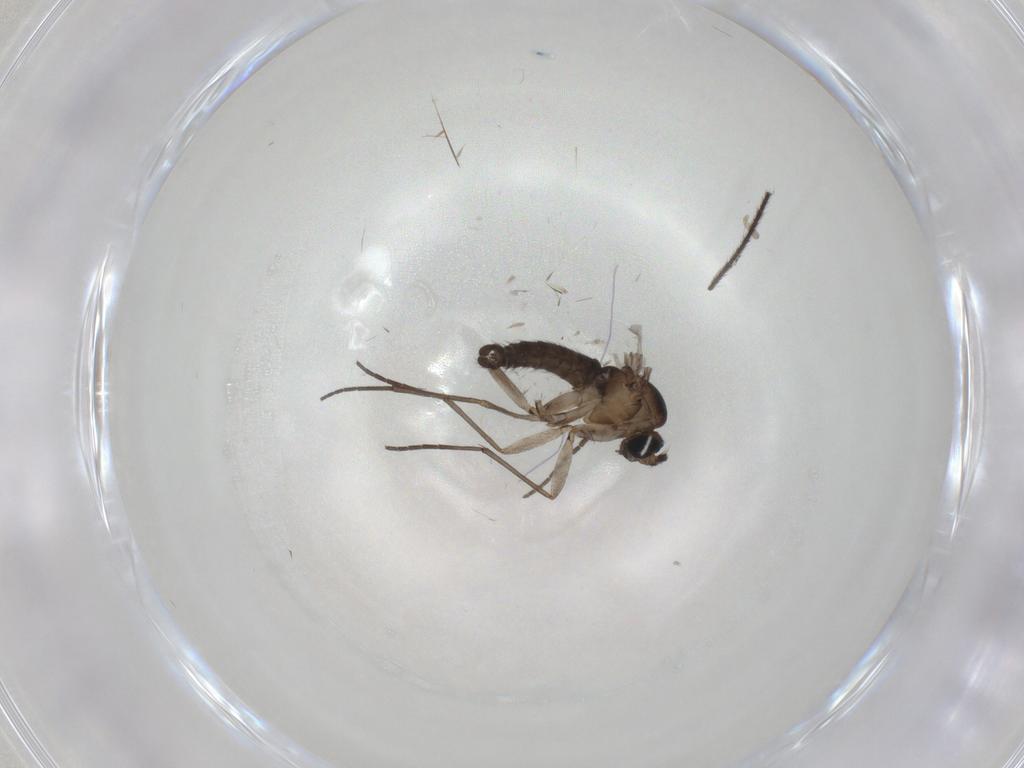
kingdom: Animalia
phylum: Arthropoda
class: Insecta
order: Diptera
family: Sciaridae
